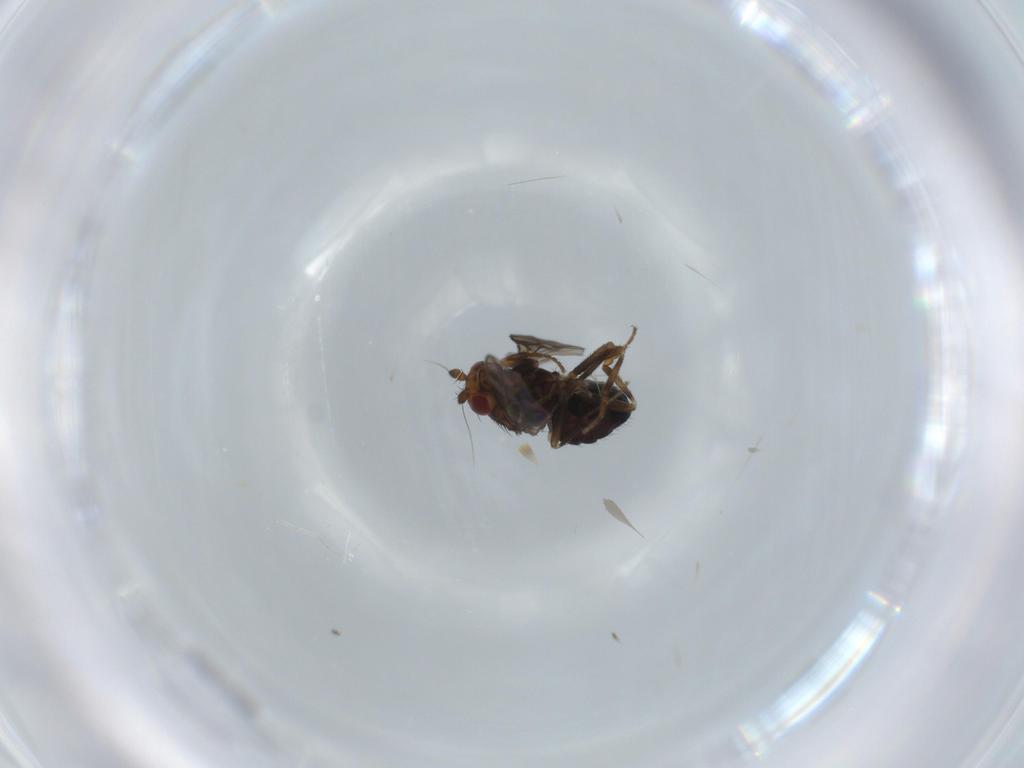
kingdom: Animalia
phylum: Arthropoda
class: Insecta
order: Diptera
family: Sphaeroceridae
